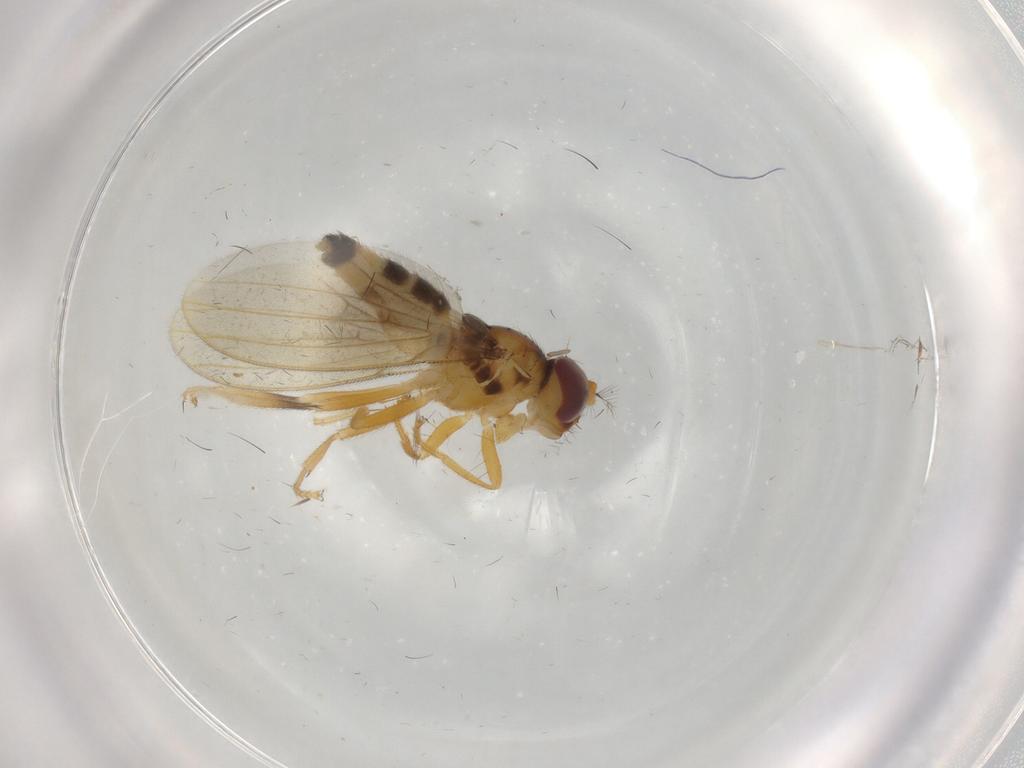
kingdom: Animalia
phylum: Arthropoda
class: Insecta
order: Diptera
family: Periscelididae
